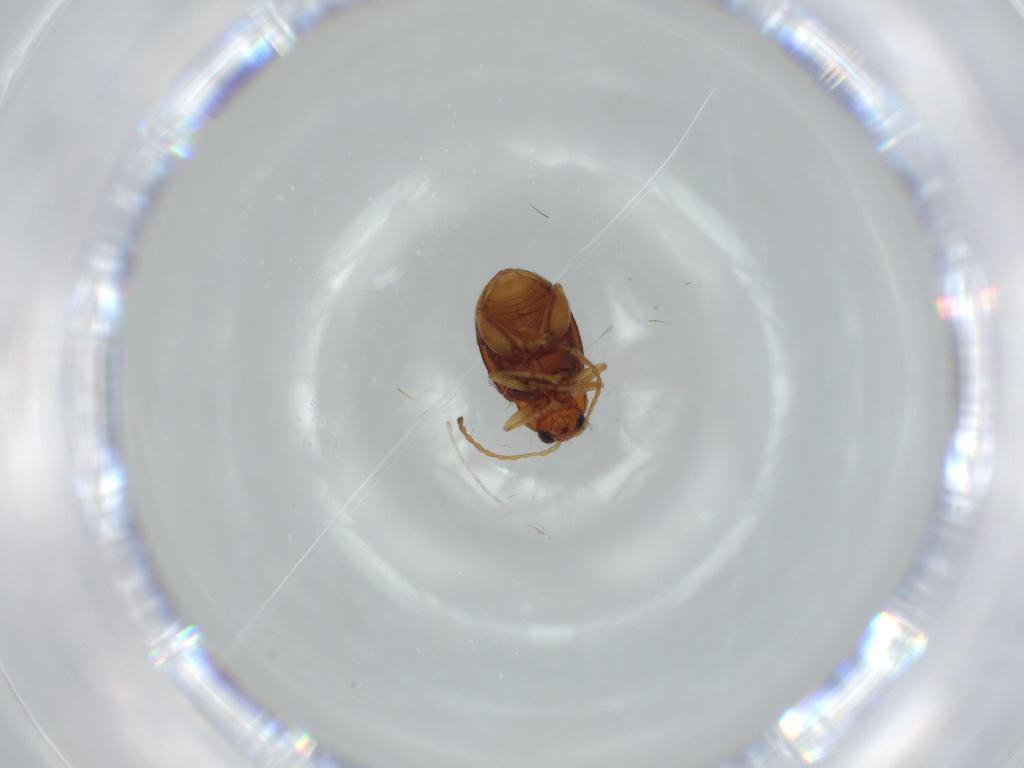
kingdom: Animalia
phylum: Arthropoda
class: Insecta
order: Coleoptera
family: Chrysomelidae
